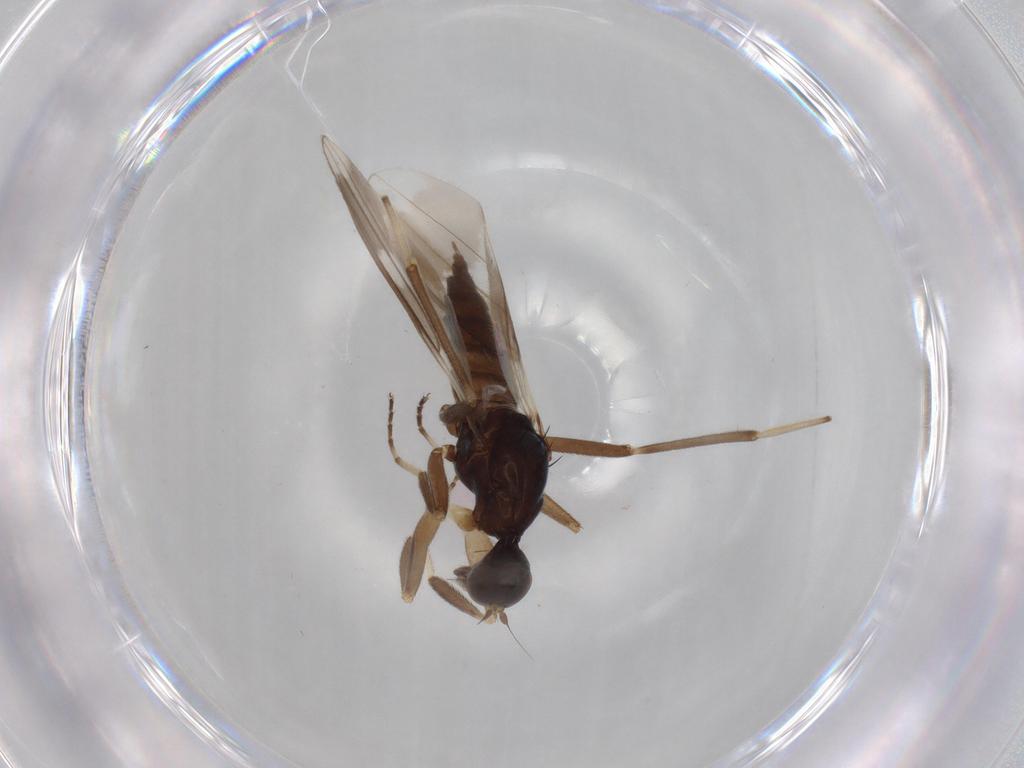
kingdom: Animalia
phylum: Arthropoda
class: Insecta
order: Diptera
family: Hybotidae
